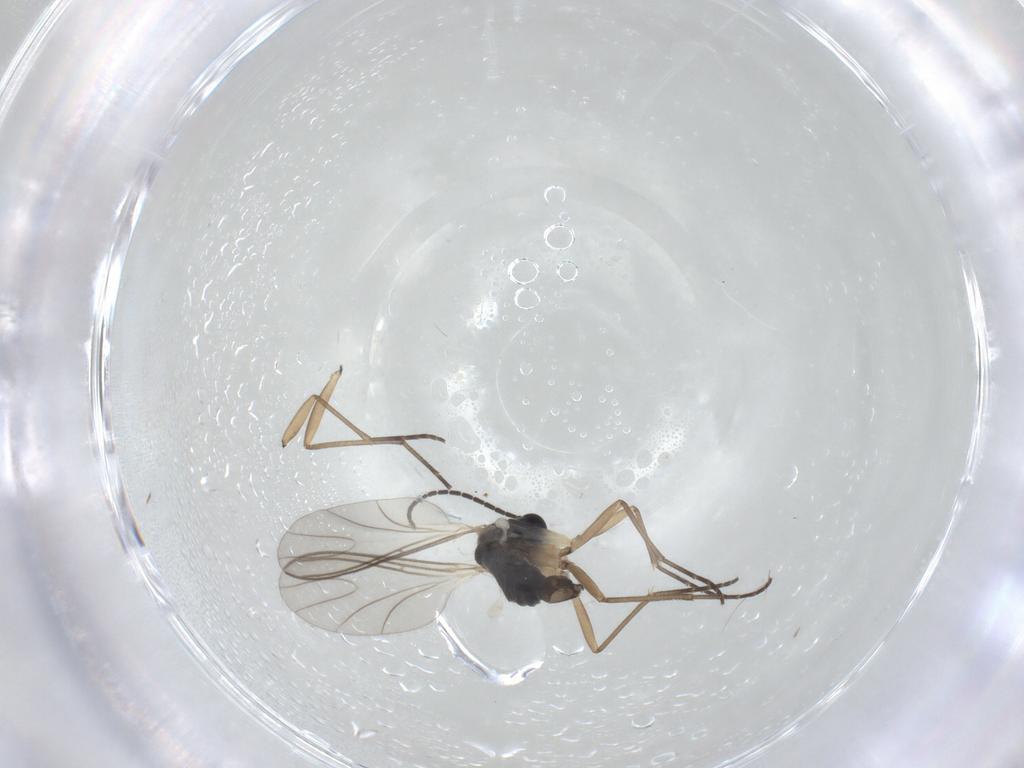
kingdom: Animalia
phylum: Arthropoda
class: Insecta
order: Diptera
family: Sciaridae
